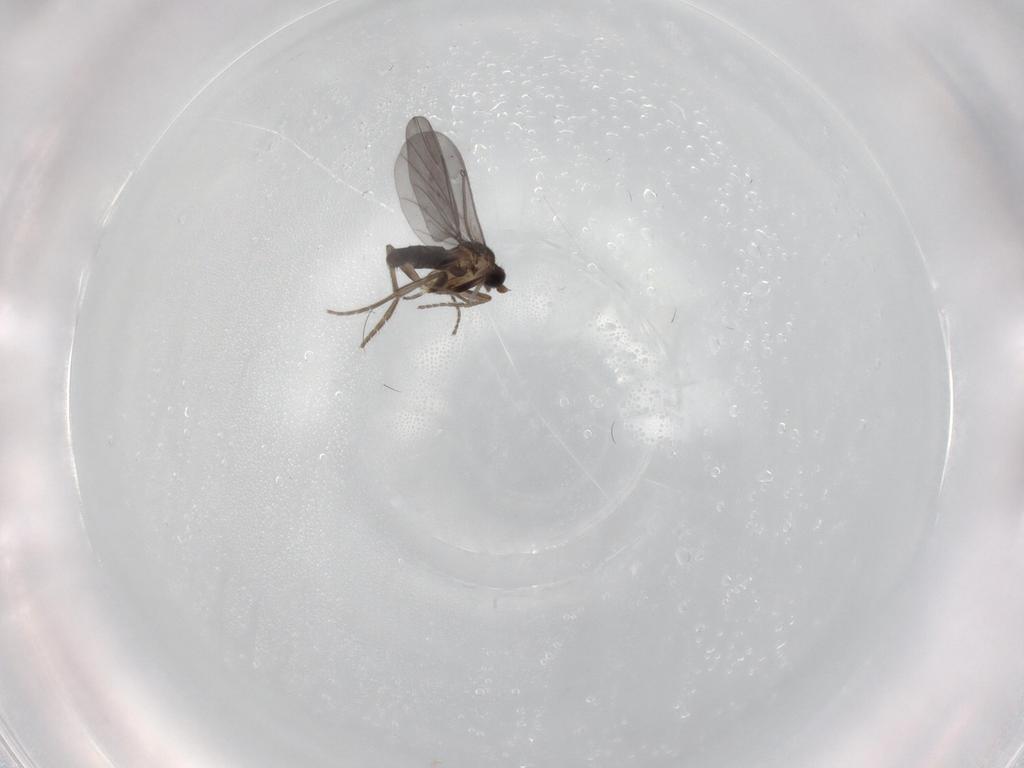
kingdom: Animalia
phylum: Arthropoda
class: Insecta
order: Diptera
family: Phoridae
